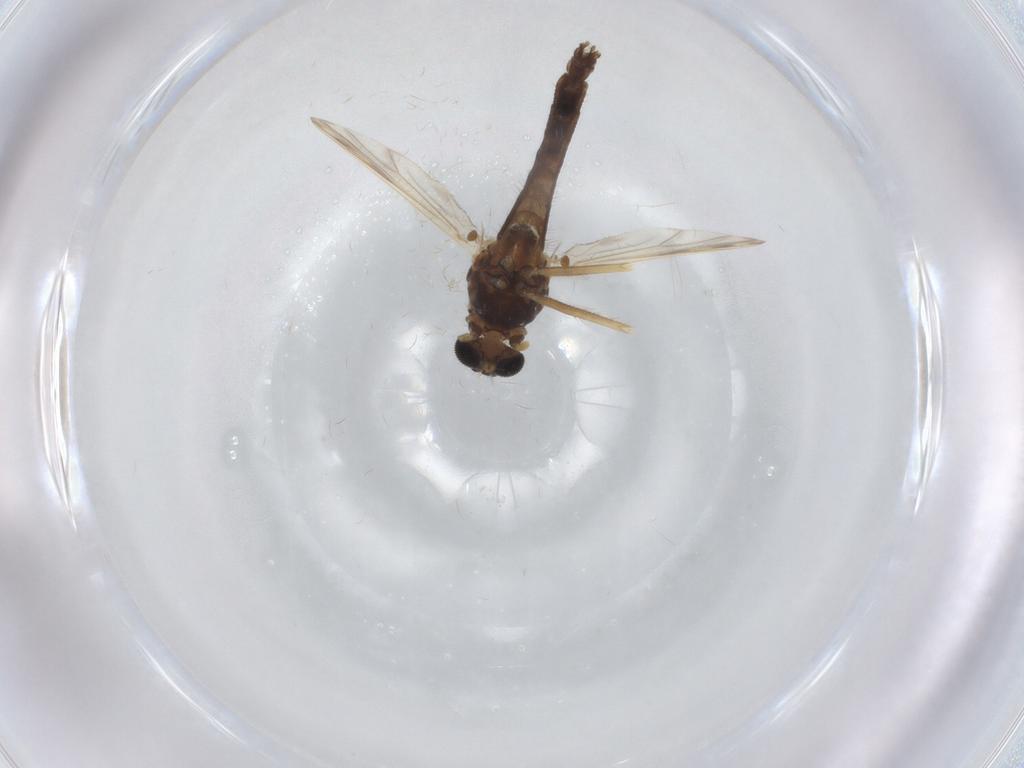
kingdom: Animalia
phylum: Arthropoda
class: Insecta
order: Diptera
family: Chironomidae
